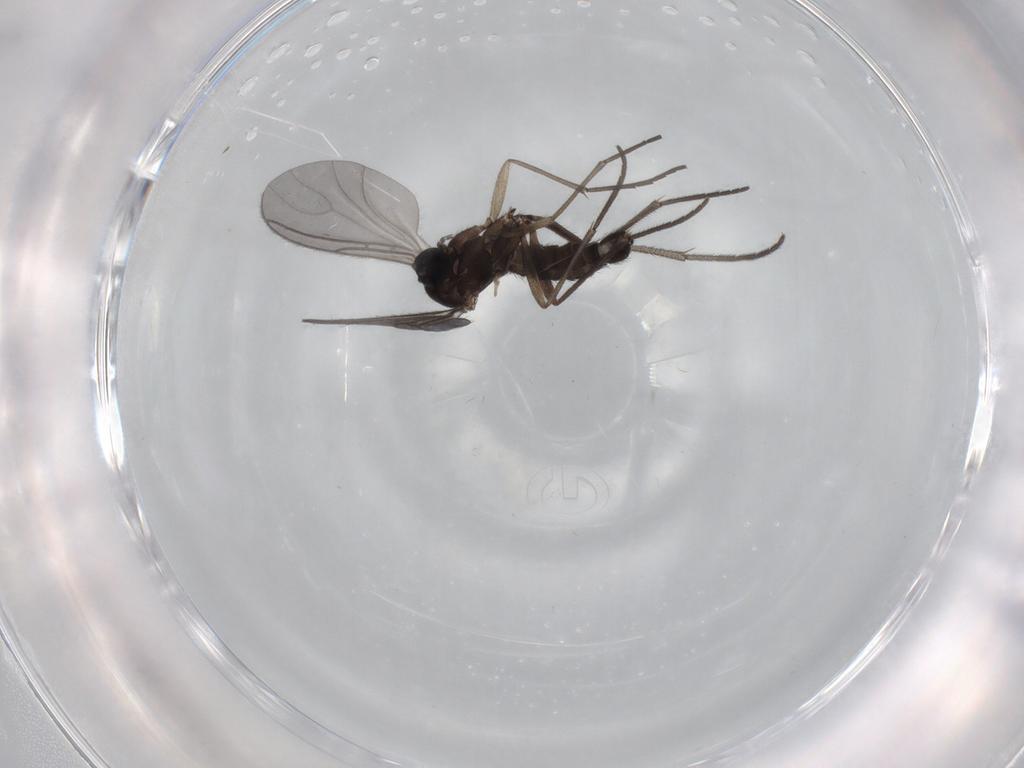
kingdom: Animalia
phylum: Arthropoda
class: Insecta
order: Diptera
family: Sciaridae
